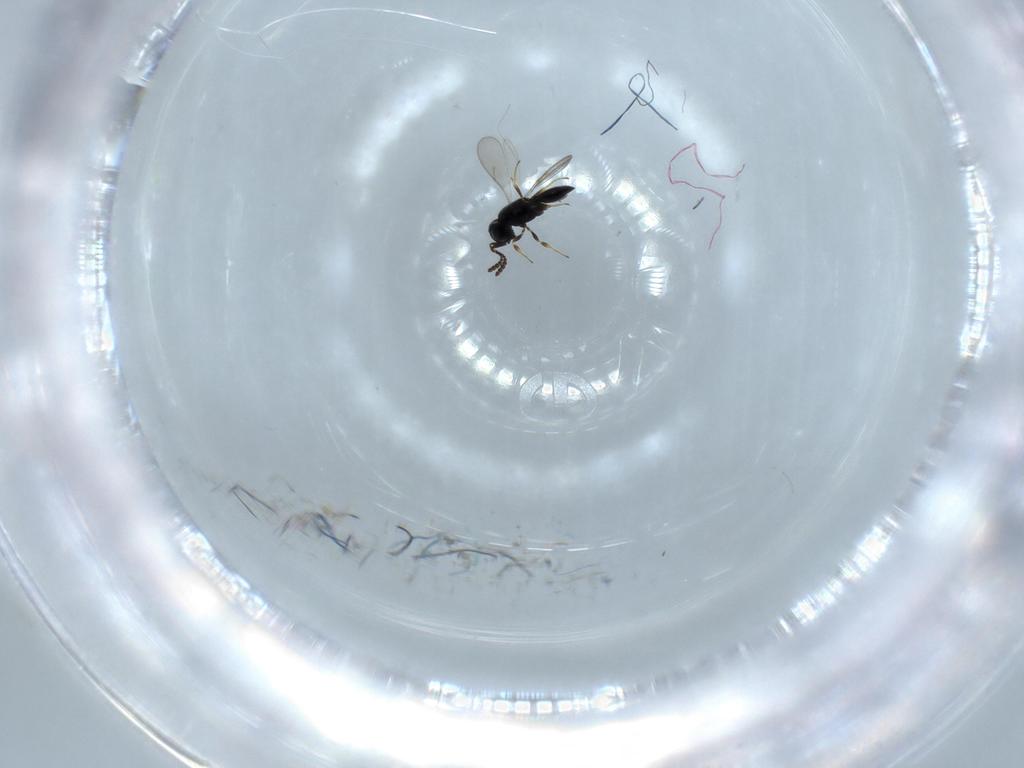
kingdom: Animalia
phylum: Arthropoda
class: Insecta
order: Hymenoptera
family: Scelionidae
